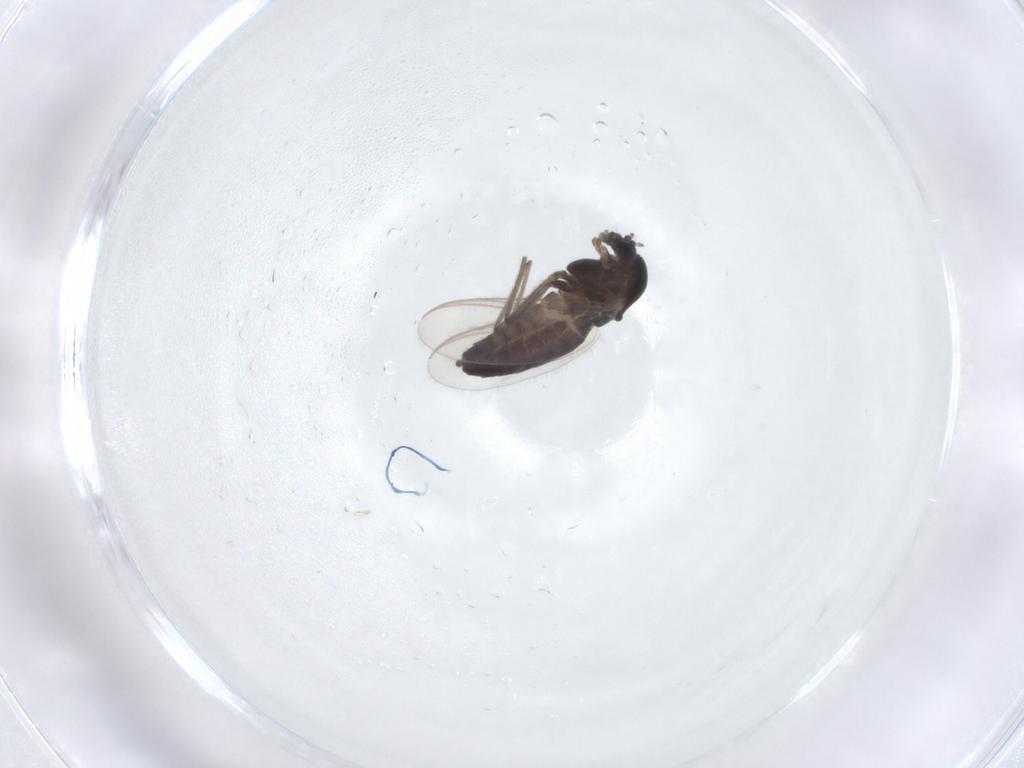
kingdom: Animalia
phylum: Arthropoda
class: Insecta
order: Diptera
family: Chironomidae
